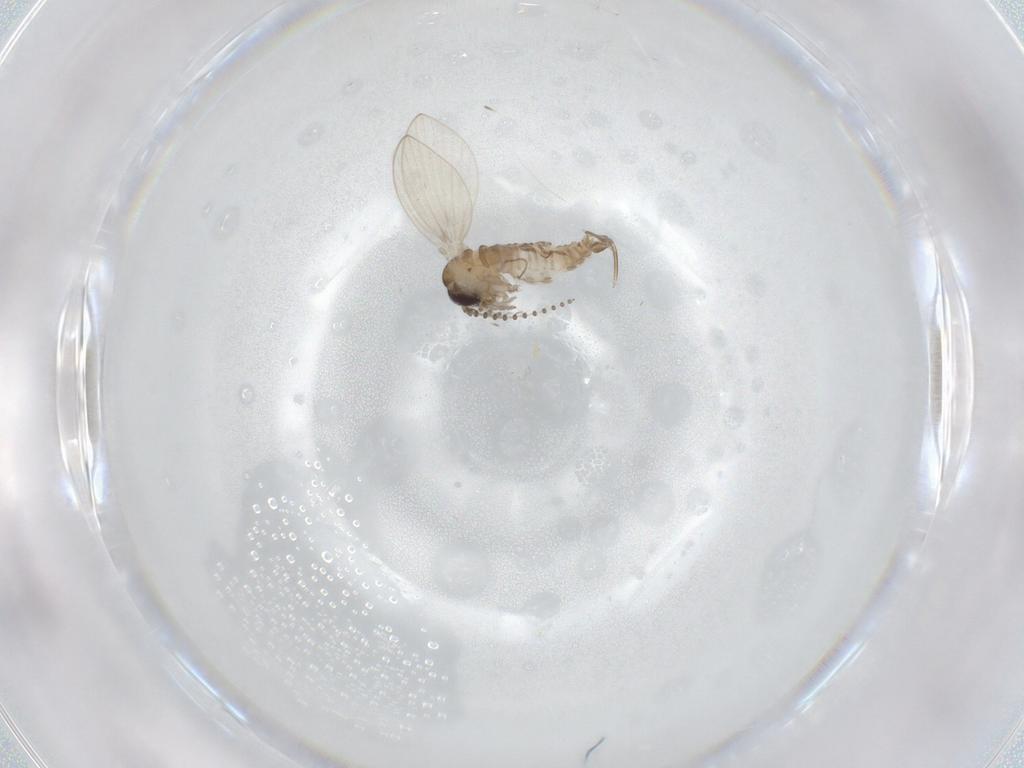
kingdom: Animalia
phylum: Arthropoda
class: Insecta
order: Diptera
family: Psychodidae
